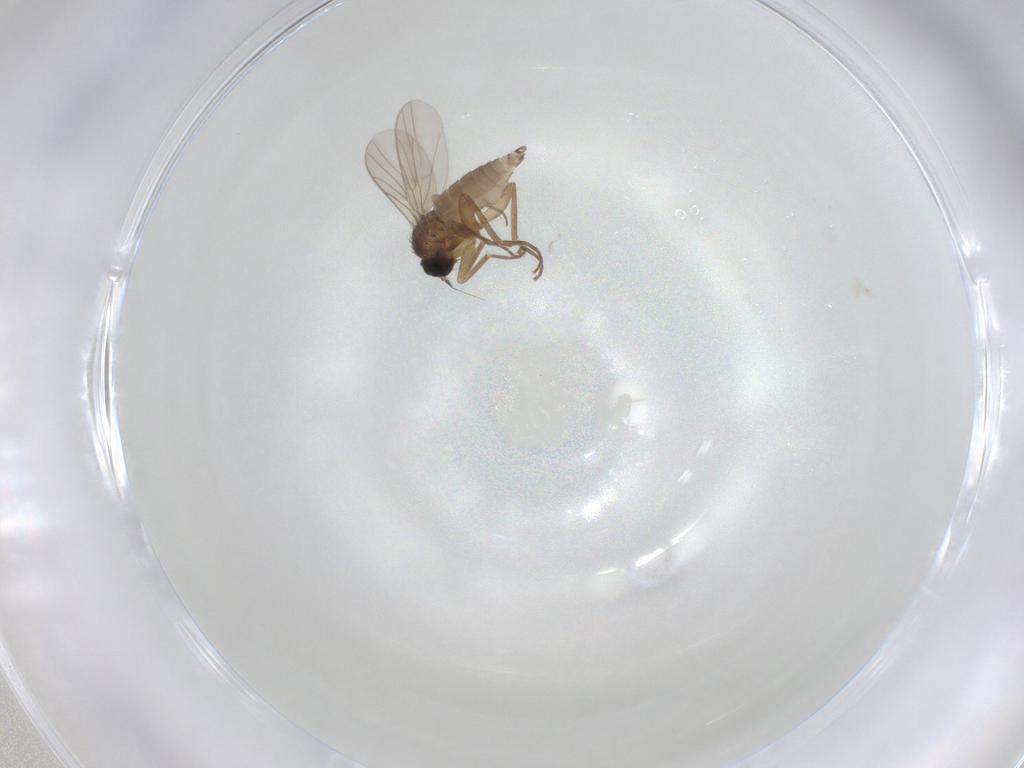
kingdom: Animalia
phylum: Arthropoda
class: Insecta
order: Diptera
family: Hybotidae
